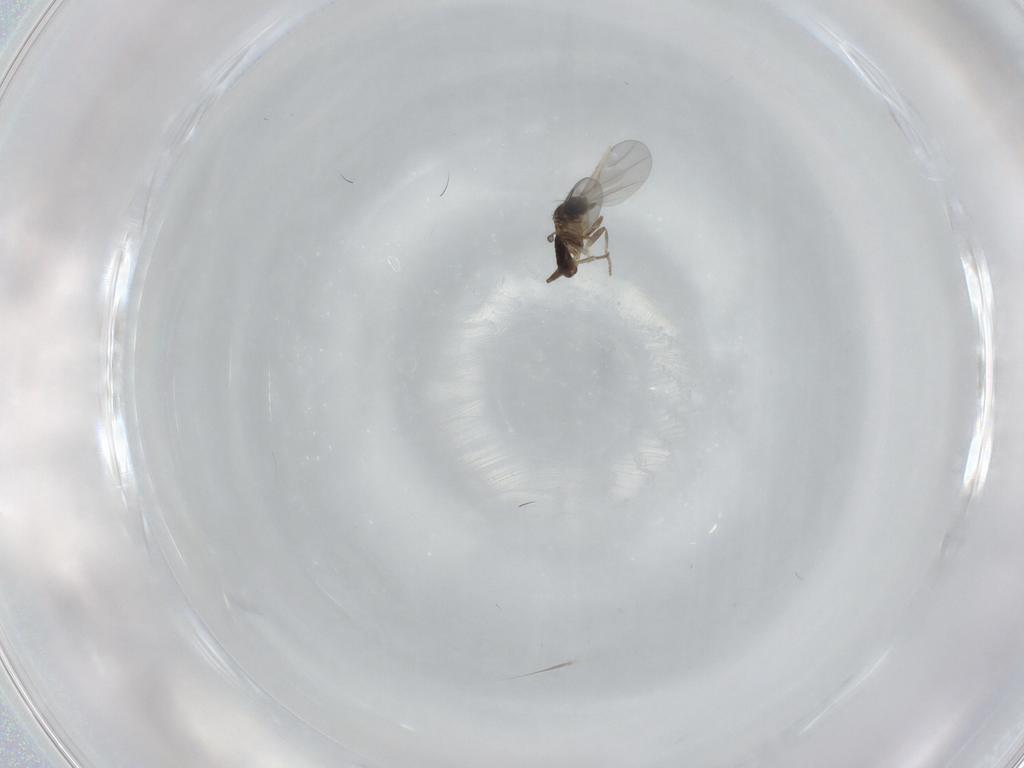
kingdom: Animalia
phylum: Arthropoda
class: Insecta
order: Diptera
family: Chironomidae
